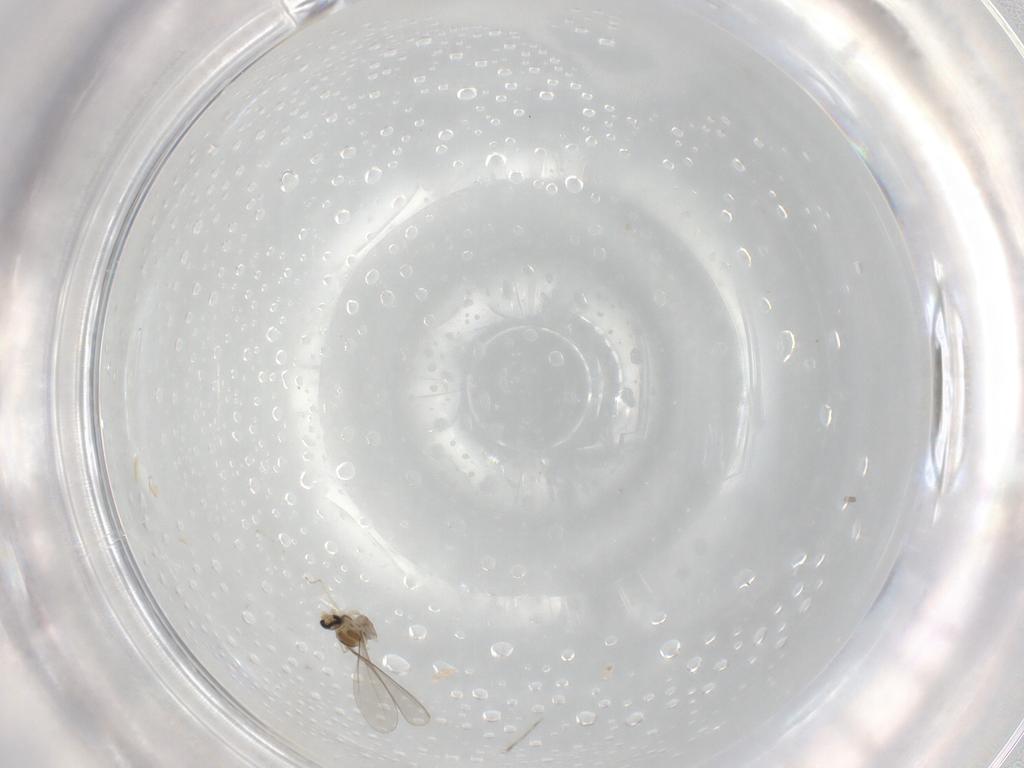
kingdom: Animalia
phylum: Arthropoda
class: Insecta
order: Diptera
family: Cecidomyiidae
